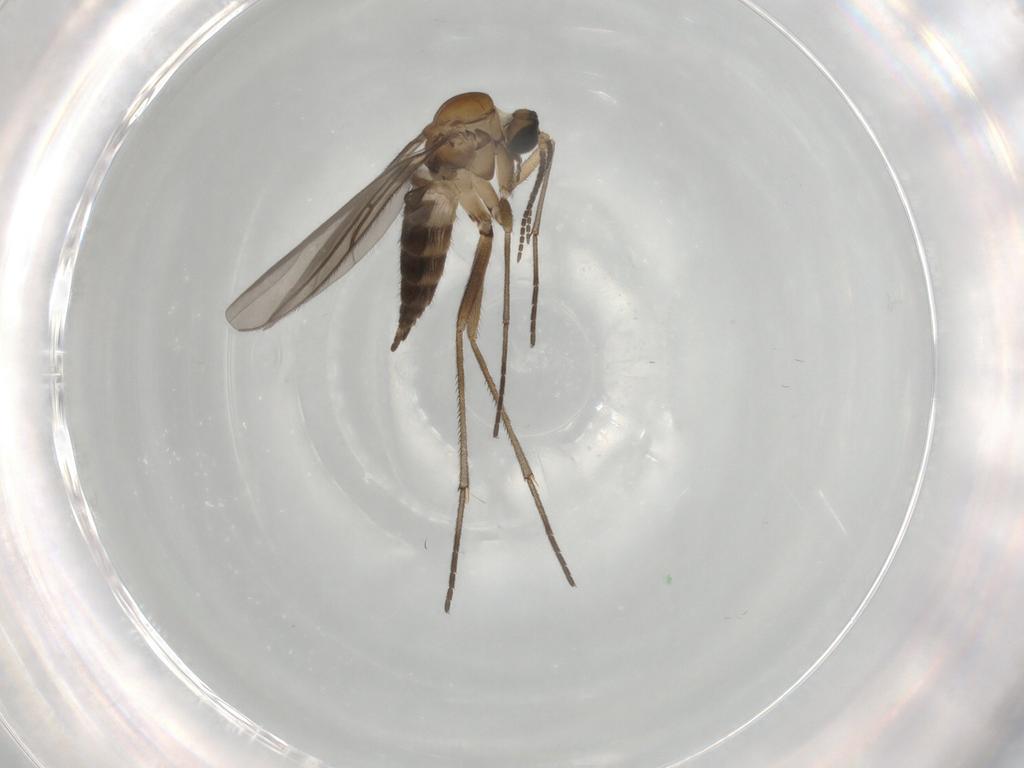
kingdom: Animalia
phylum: Arthropoda
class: Insecta
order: Diptera
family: Sciaridae
